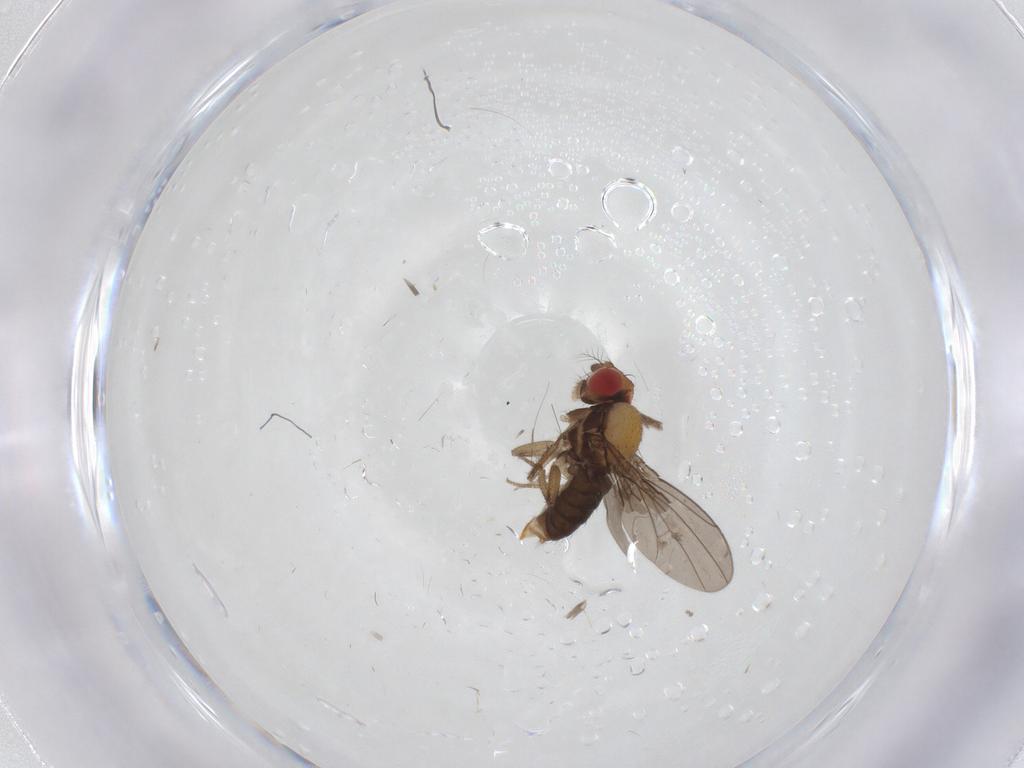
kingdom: Animalia
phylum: Arthropoda
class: Insecta
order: Diptera
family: Drosophilidae
